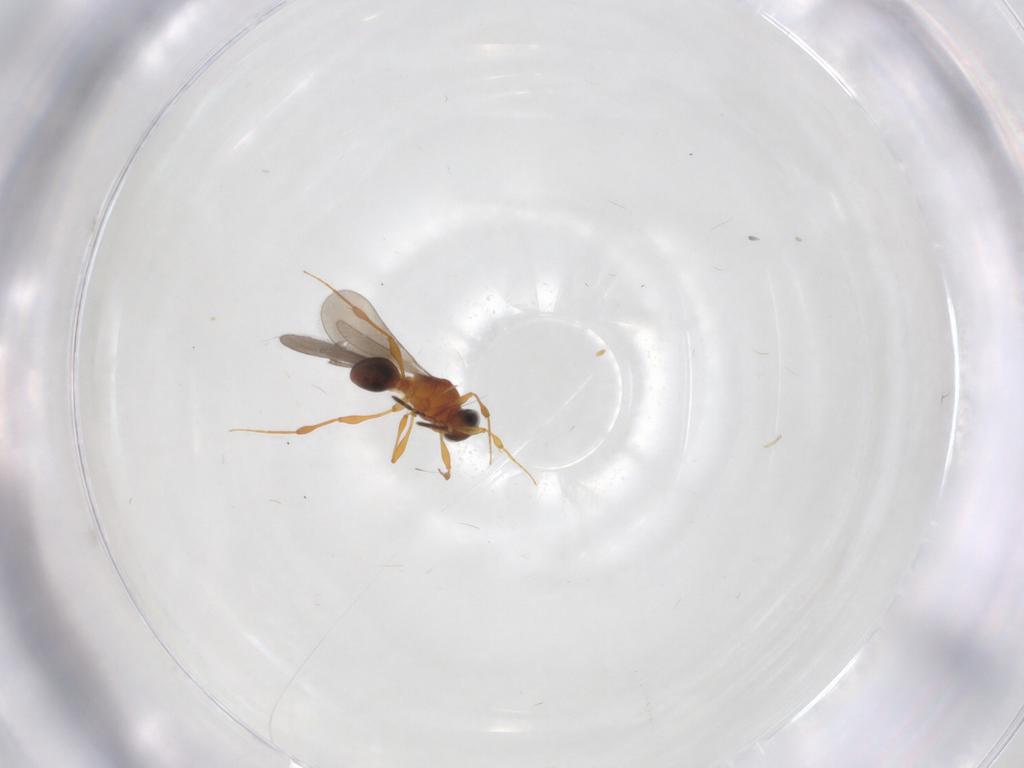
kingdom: Animalia
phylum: Arthropoda
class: Insecta
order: Hymenoptera
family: Platygastridae
